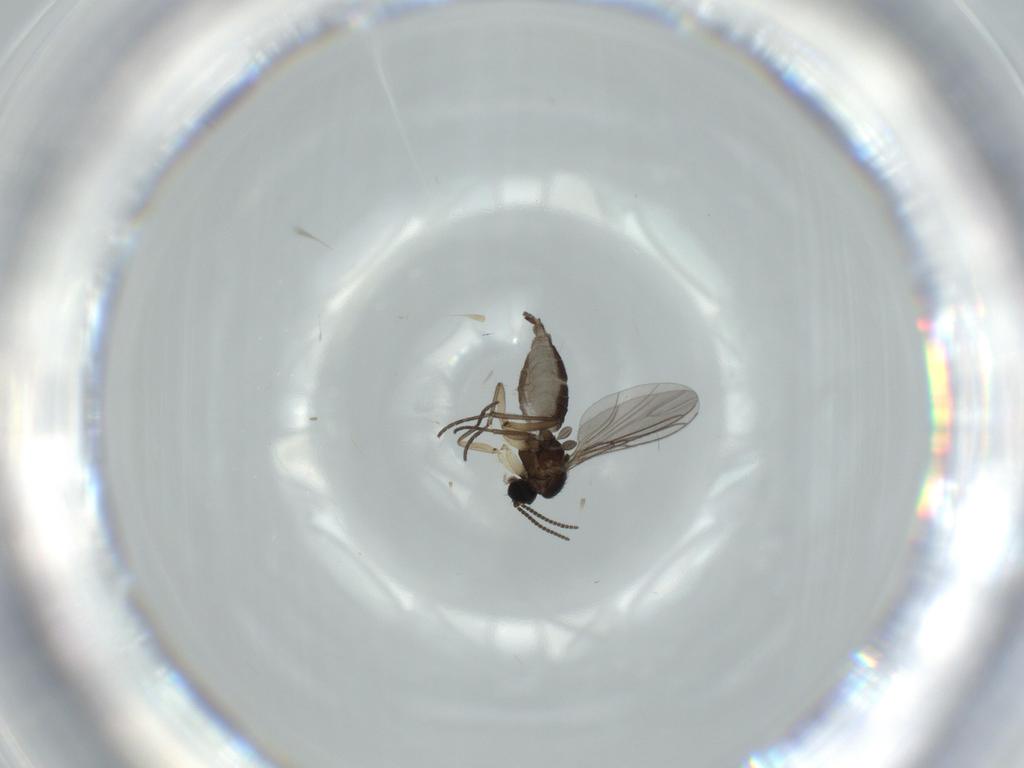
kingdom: Animalia
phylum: Arthropoda
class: Insecta
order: Diptera
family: Sciaridae
